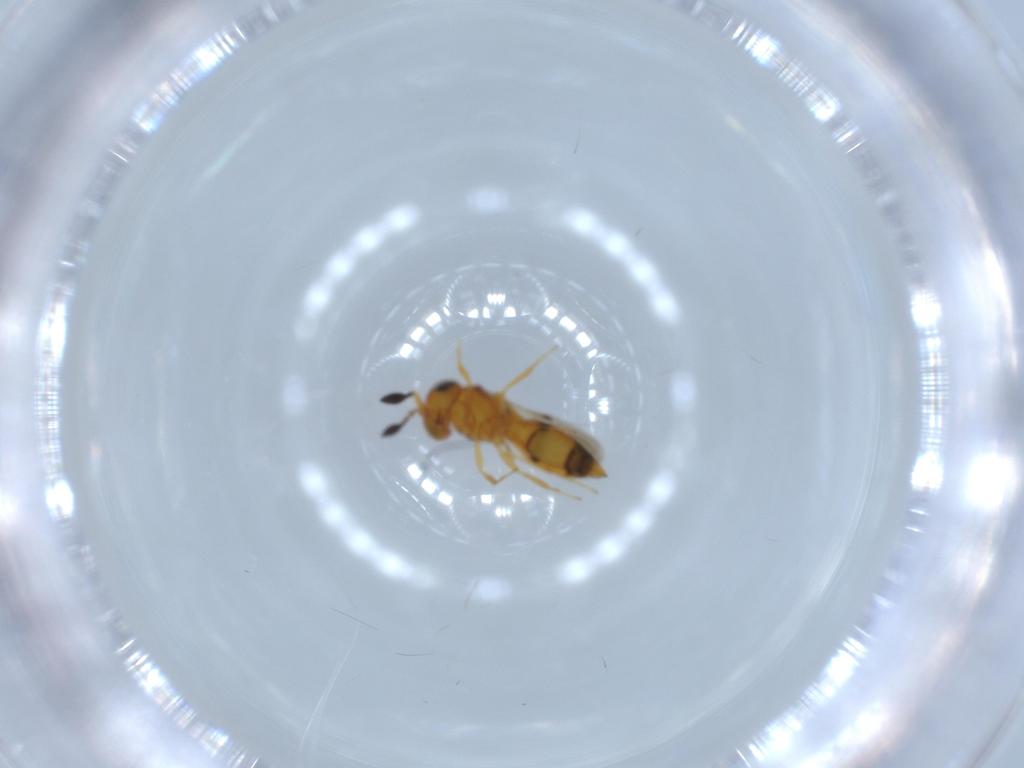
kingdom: Animalia
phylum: Arthropoda
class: Insecta
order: Hymenoptera
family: Scelionidae
